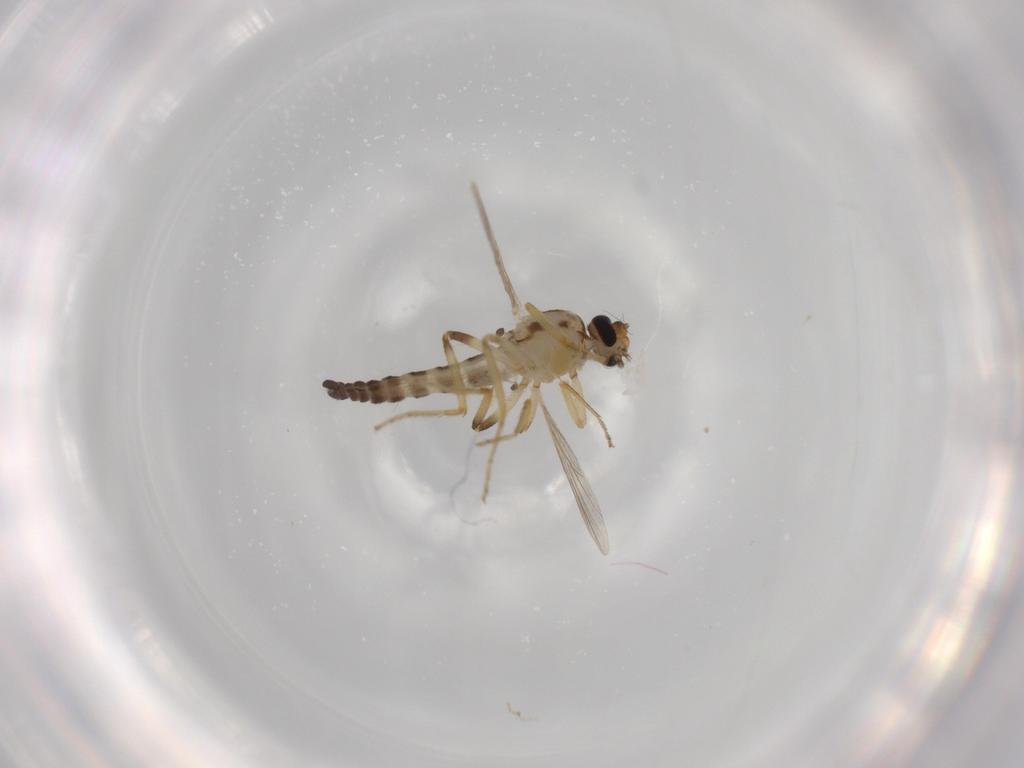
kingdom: Animalia
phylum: Arthropoda
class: Insecta
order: Diptera
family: Ceratopogonidae
